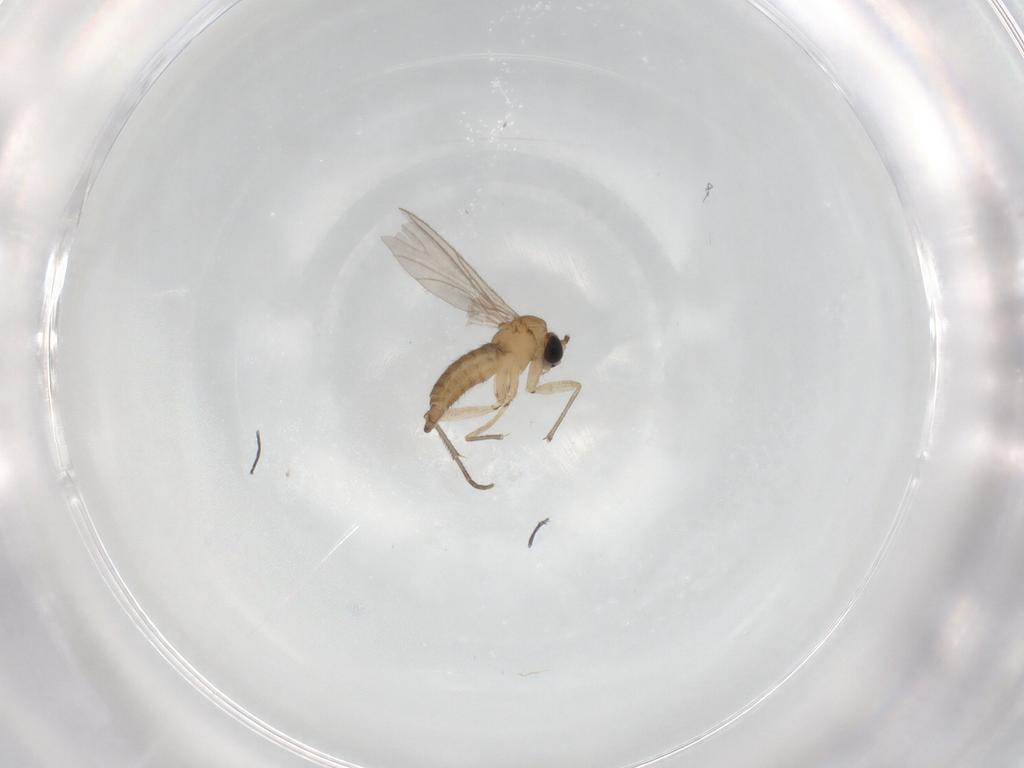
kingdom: Animalia
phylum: Arthropoda
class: Insecta
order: Diptera
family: Sciaridae
